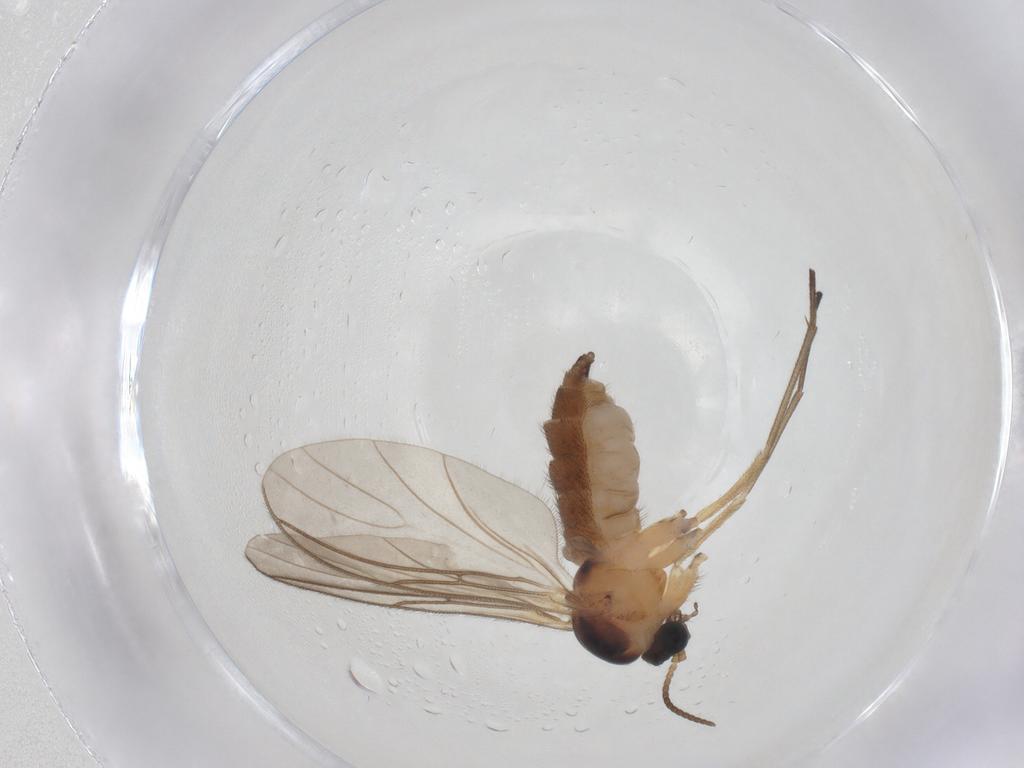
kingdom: Animalia
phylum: Arthropoda
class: Insecta
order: Diptera
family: Sciaridae
